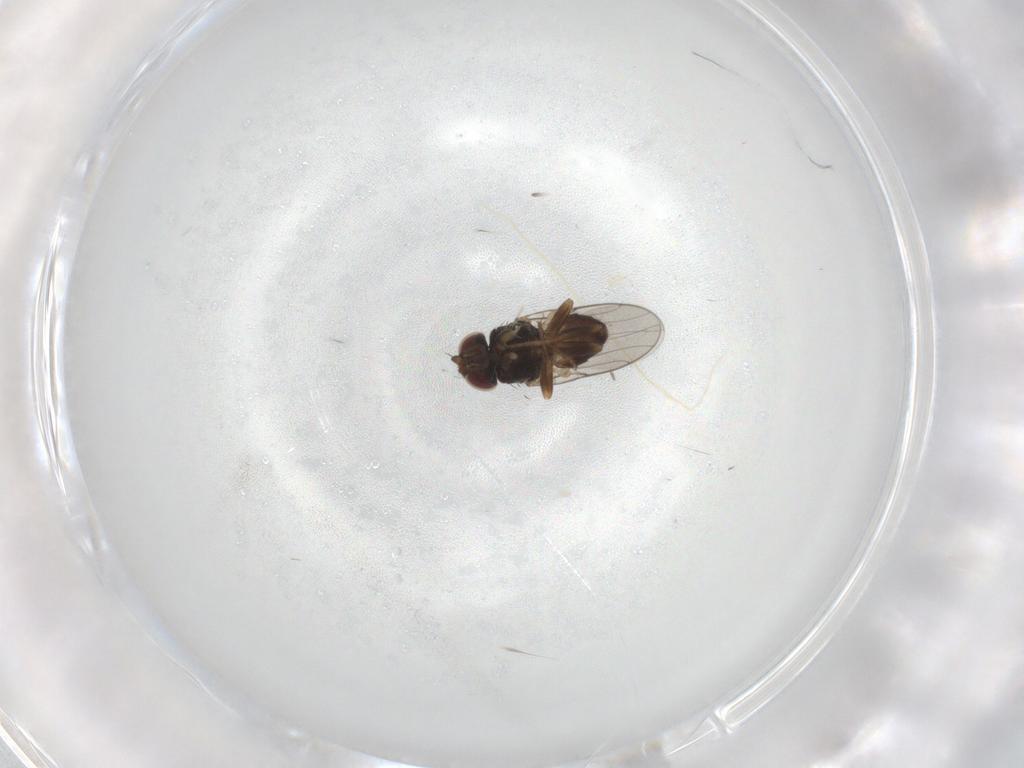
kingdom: Animalia
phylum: Arthropoda
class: Insecta
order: Diptera
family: Chloropidae
